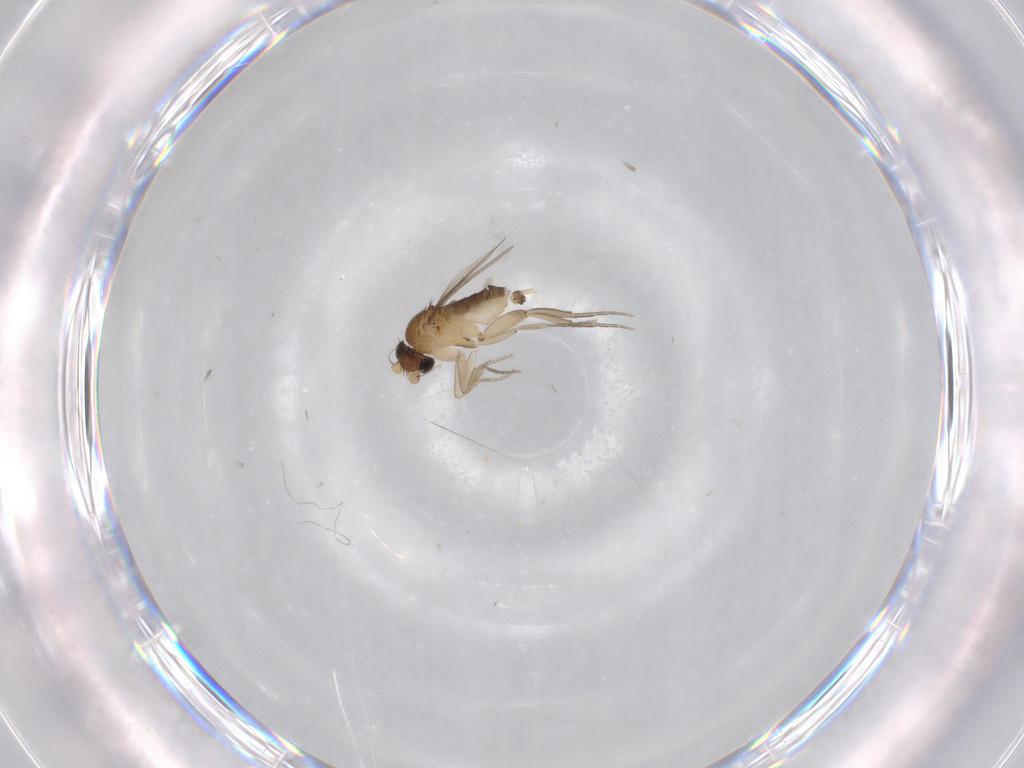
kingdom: Animalia
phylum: Arthropoda
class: Insecta
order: Diptera
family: Phoridae
